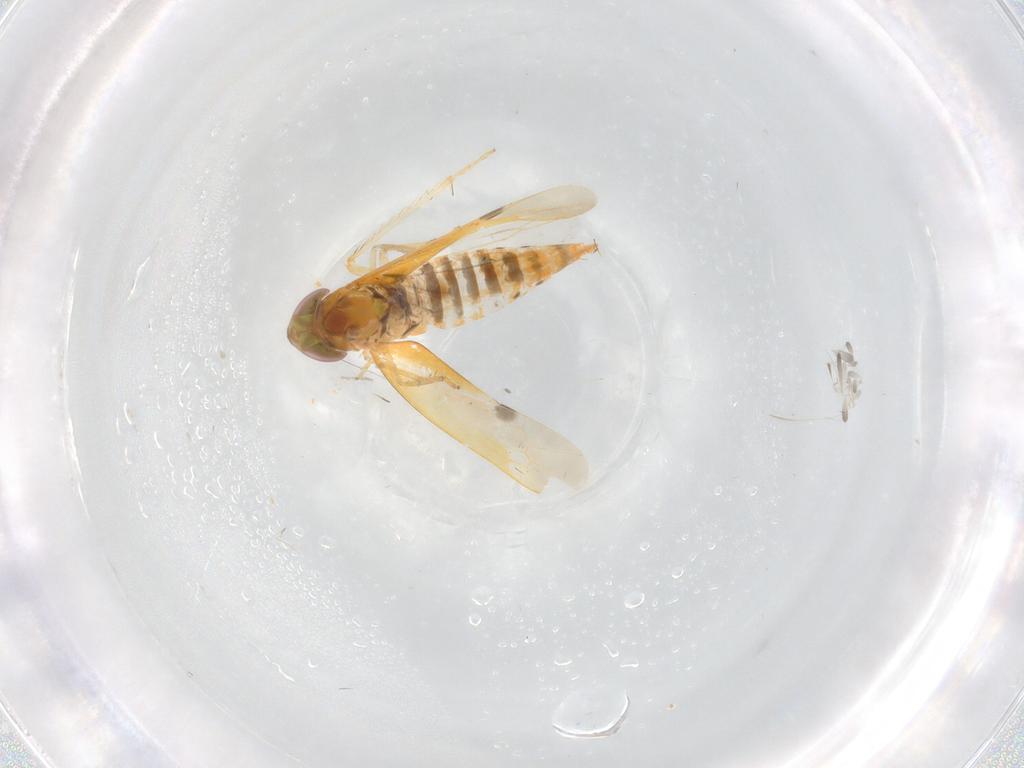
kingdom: Animalia
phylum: Arthropoda
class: Insecta
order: Hemiptera
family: Cicadellidae
